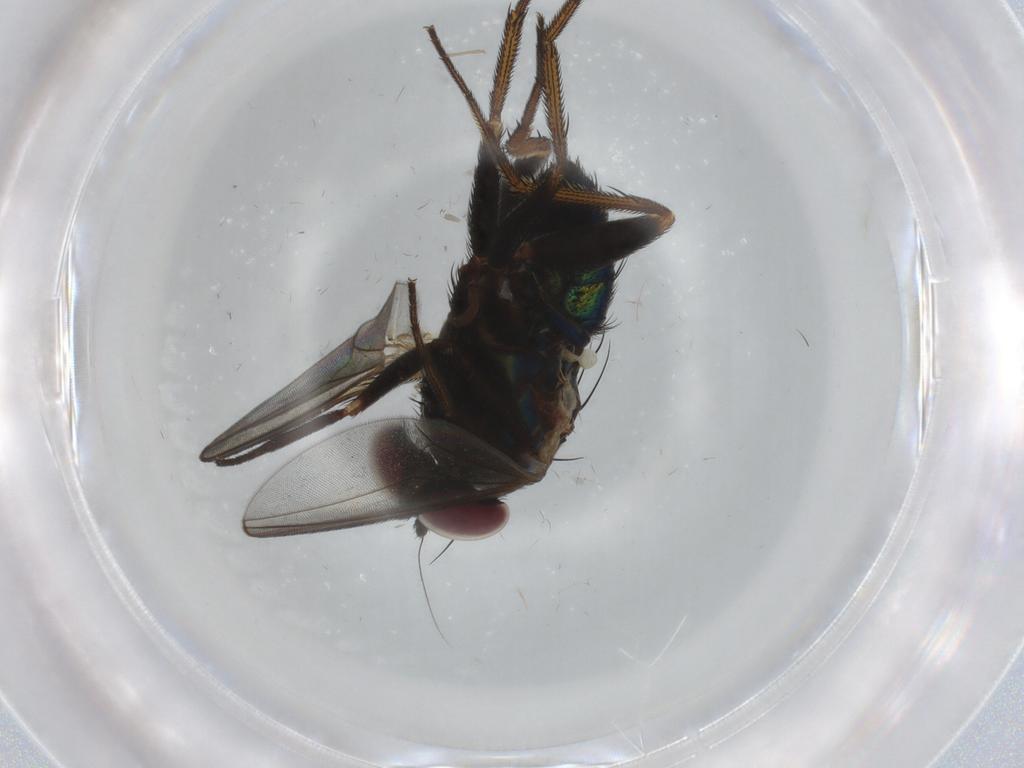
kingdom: Animalia
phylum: Arthropoda
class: Insecta
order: Diptera
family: Dolichopodidae
